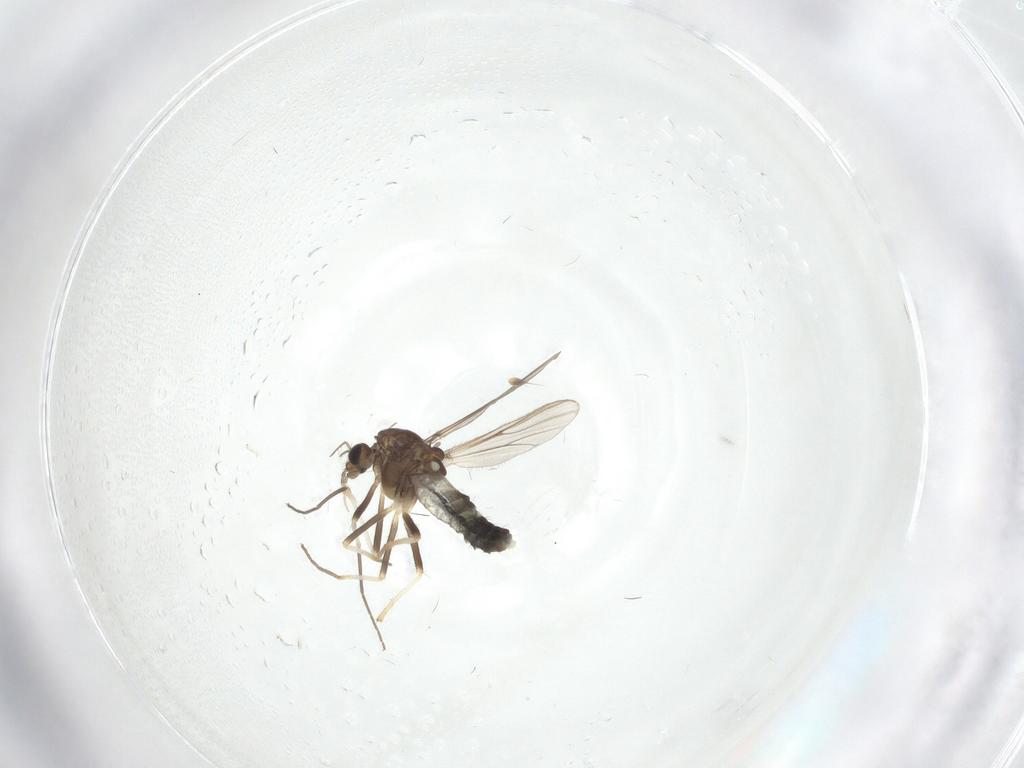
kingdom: Animalia
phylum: Arthropoda
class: Insecta
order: Diptera
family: Chironomidae
